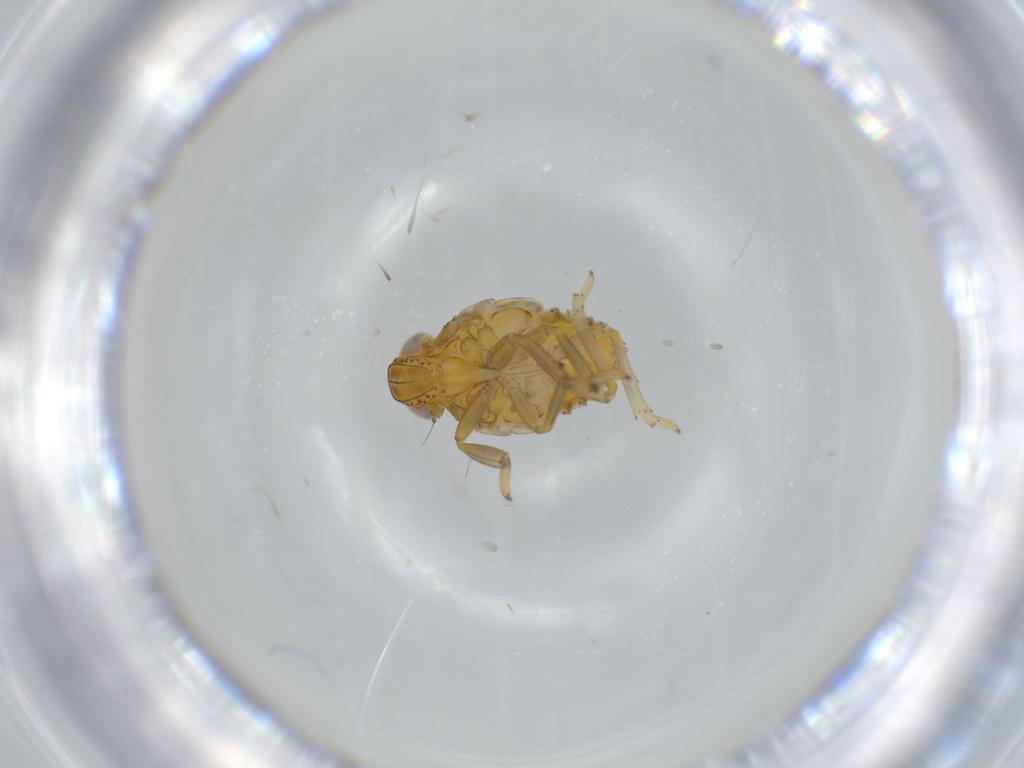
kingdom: Animalia
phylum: Arthropoda
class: Insecta
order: Hemiptera
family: Issidae
